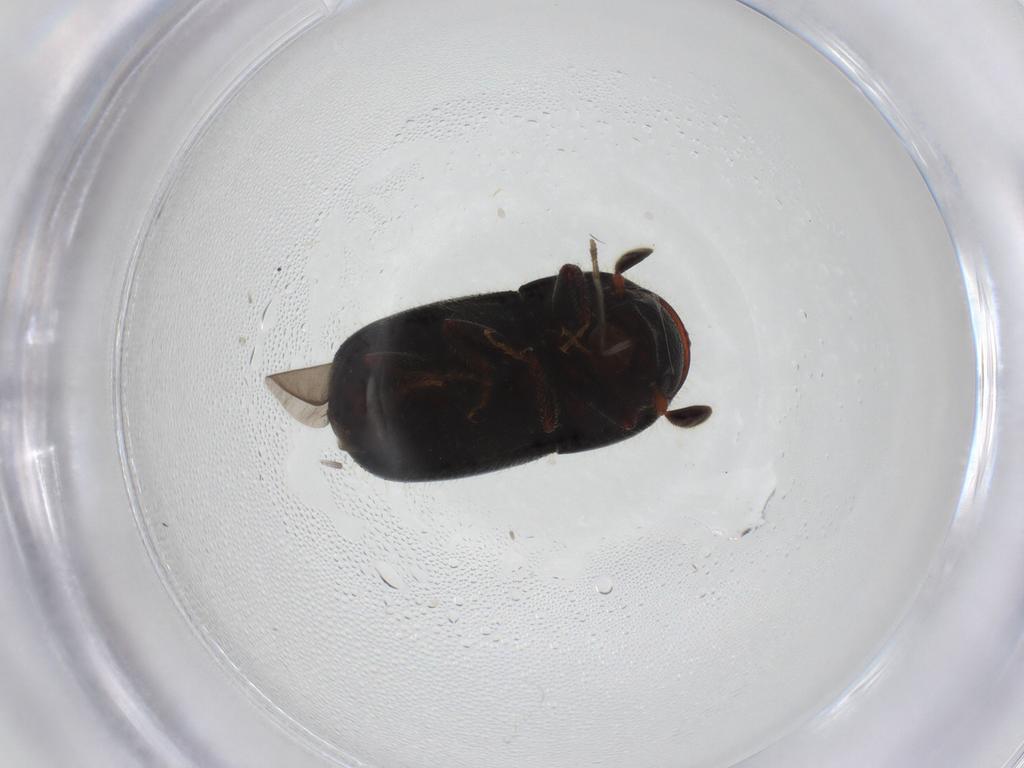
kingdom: Animalia
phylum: Arthropoda
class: Insecta
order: Coleoptera
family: Curculionidae
